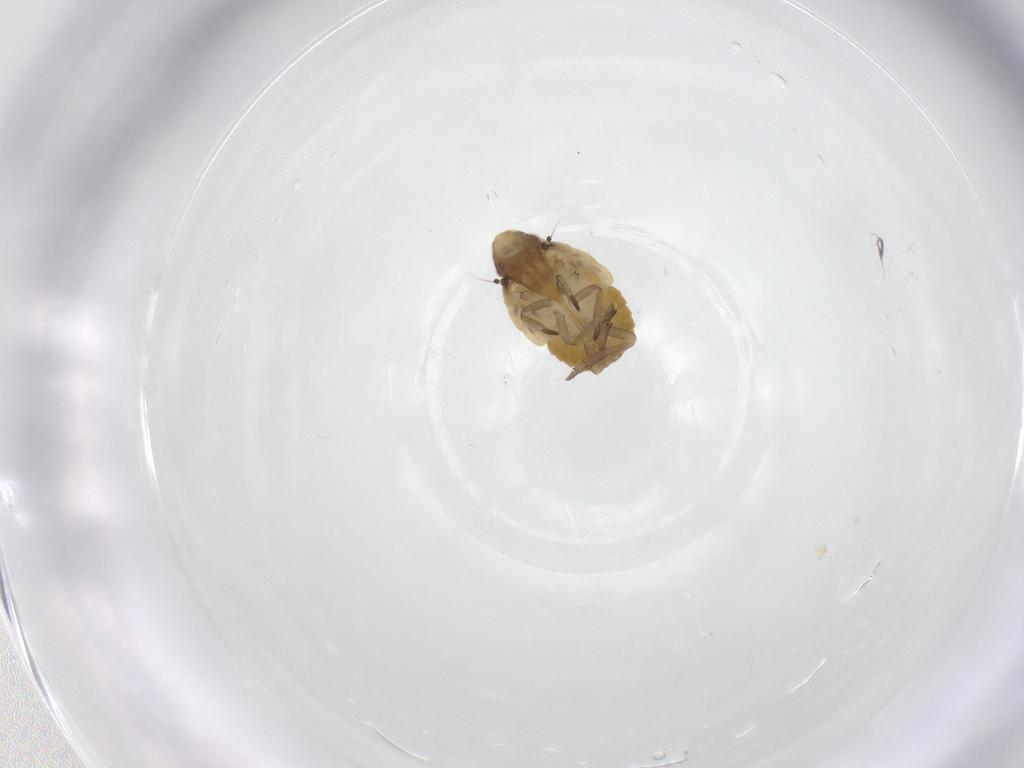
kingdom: Animalia
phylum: Arthropoda
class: Insecta
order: Hemiptera
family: Flatidae
